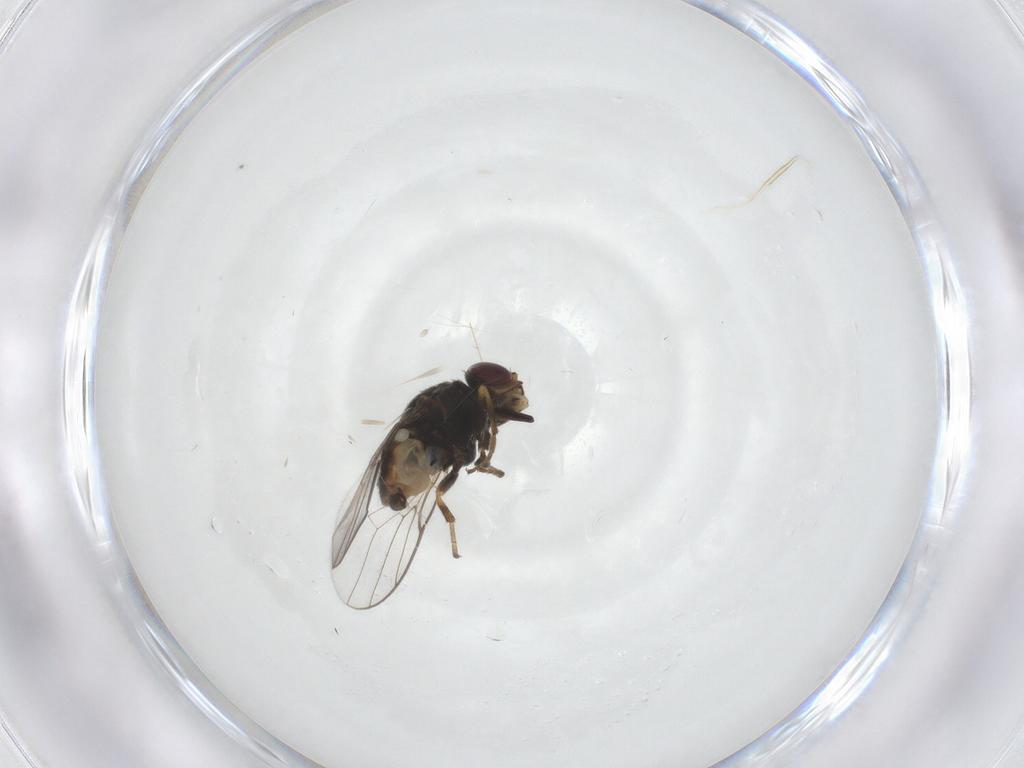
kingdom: Animalia
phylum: Arthropoda
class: Insecta
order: Diptera
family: Chloropidae
